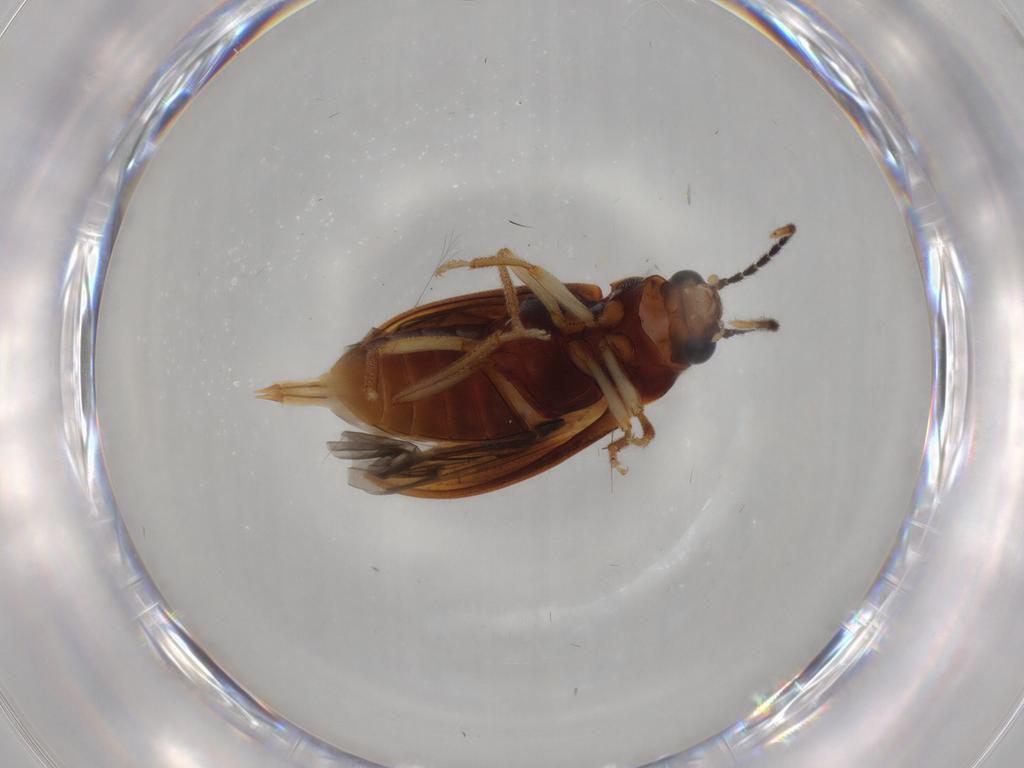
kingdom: Animalia
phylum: Arthropoda
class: Insecta
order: Coleoptera
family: Ptilodactylidae
